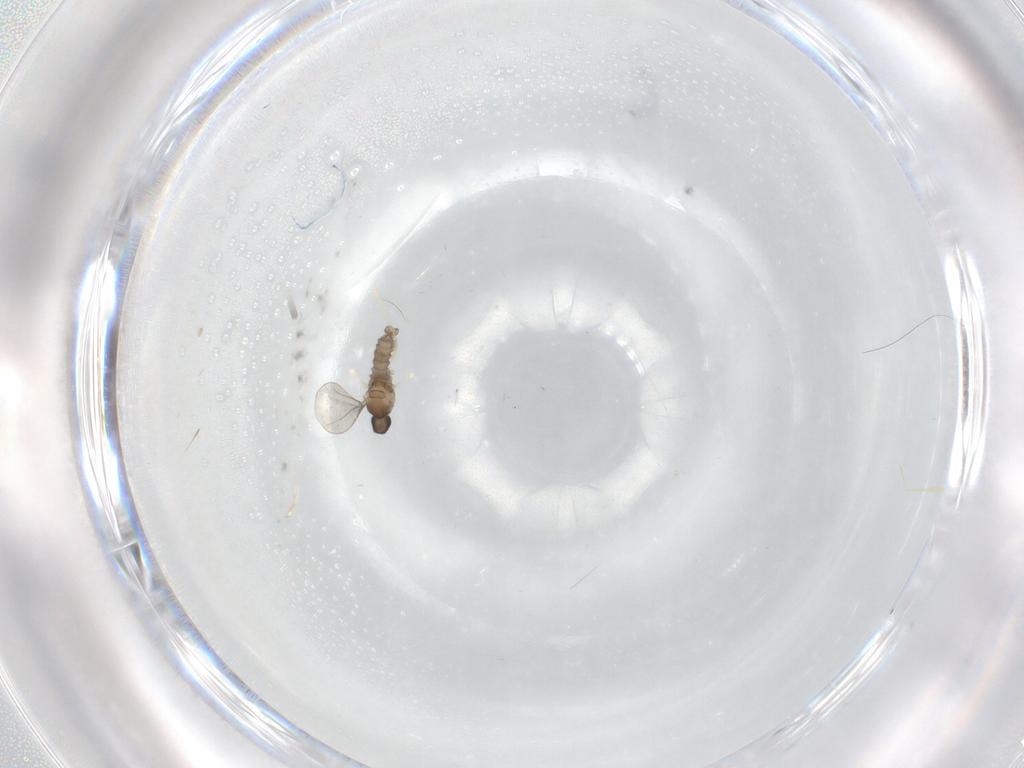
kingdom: Animalia
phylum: Arthropoda
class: Insecta
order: Diptera
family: Cecidomyiidae
